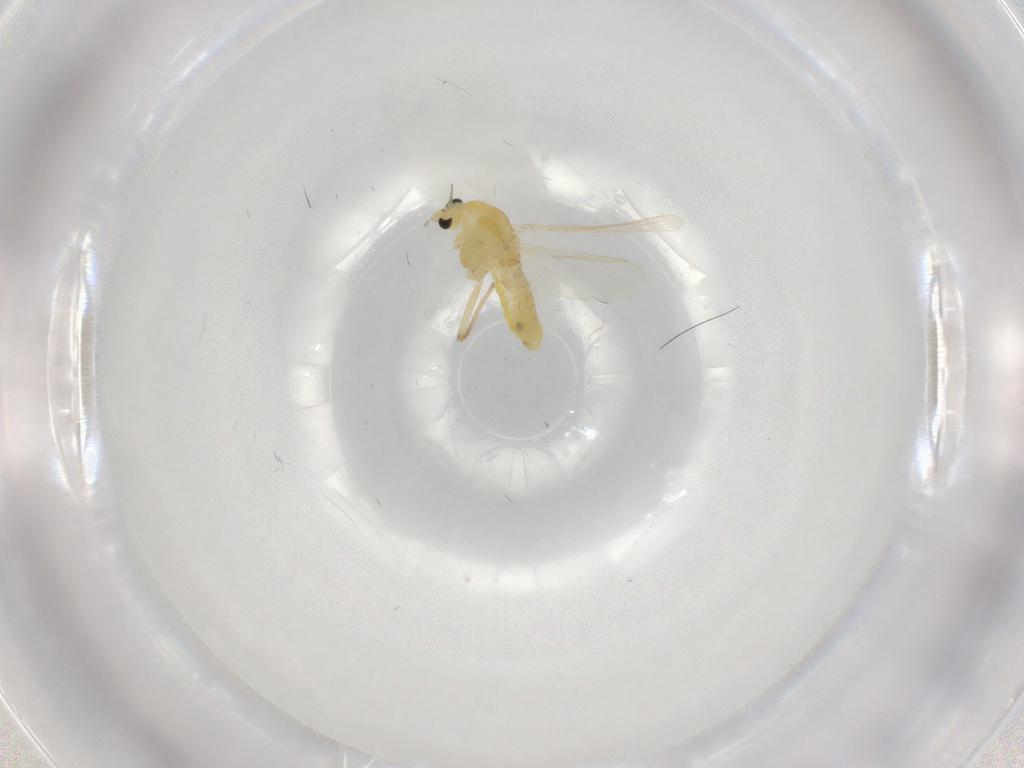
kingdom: Animalia
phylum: Arthropoda
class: Insecta
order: Diptera
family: Chironomidae
